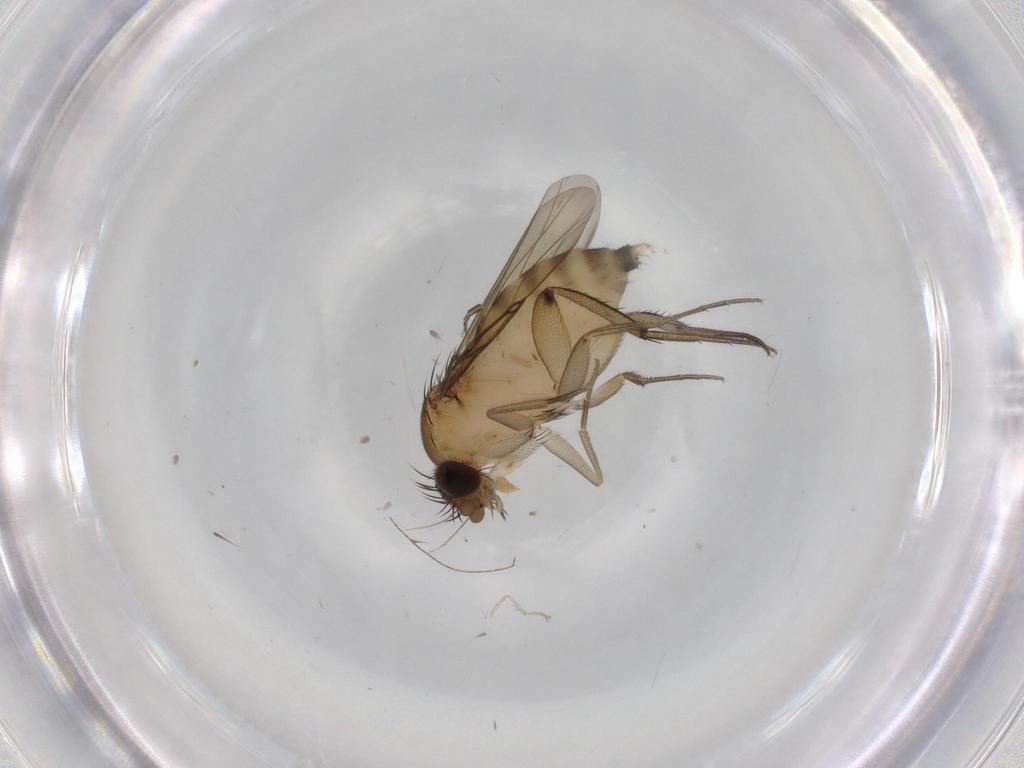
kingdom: Animalia
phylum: Arthropoda
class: Insecta
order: Diptera
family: Phoridae
